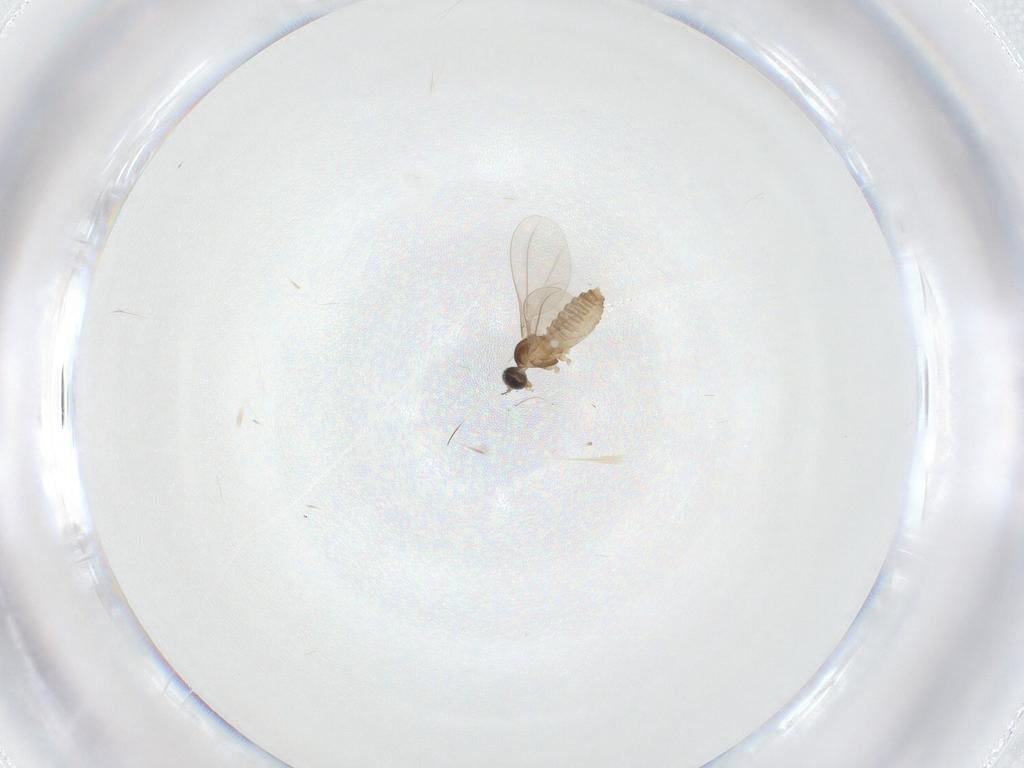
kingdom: Animalia
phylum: Arthropoda
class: Insecta
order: Diptera
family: Cecidomyiidae
